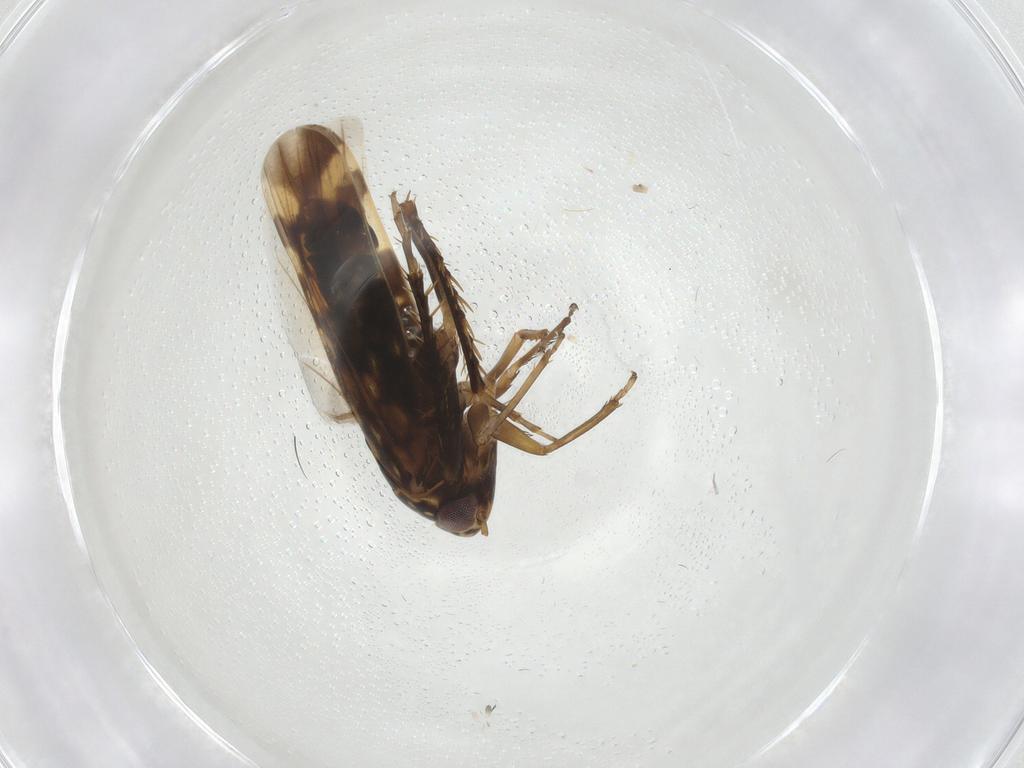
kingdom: Animalia
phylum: Arthropoda
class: Insecta
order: Hemiptera
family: Cicadellidae
